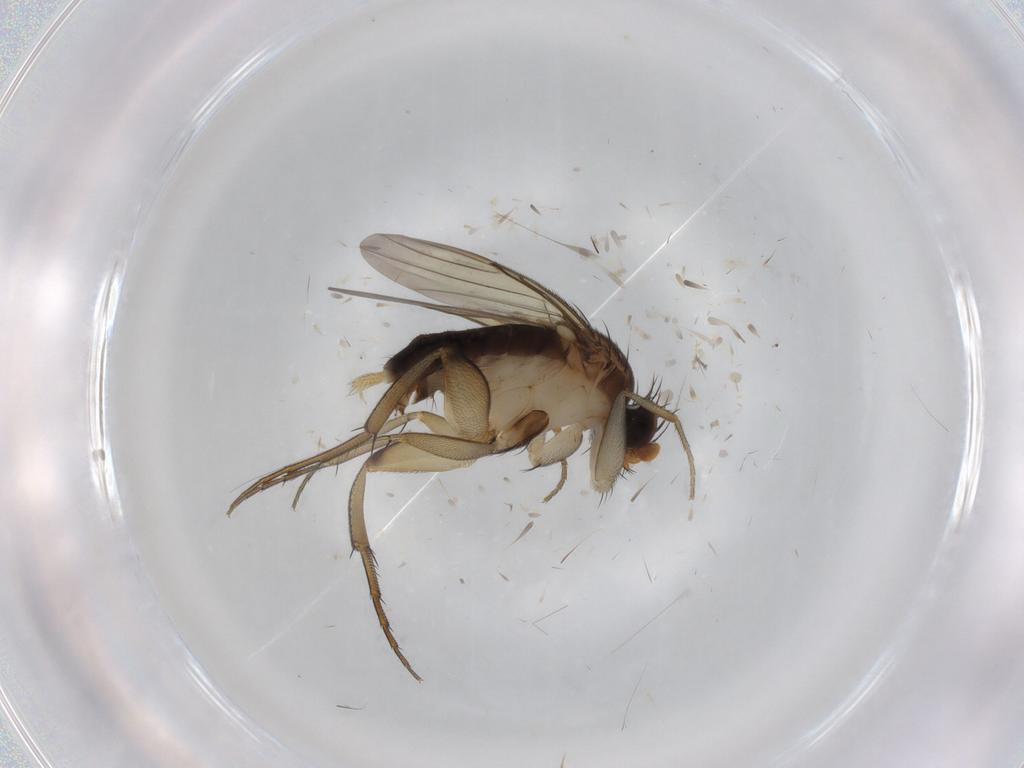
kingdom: Animalia
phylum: Arthropoda
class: Insecta
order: Diptera
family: Phoridae
